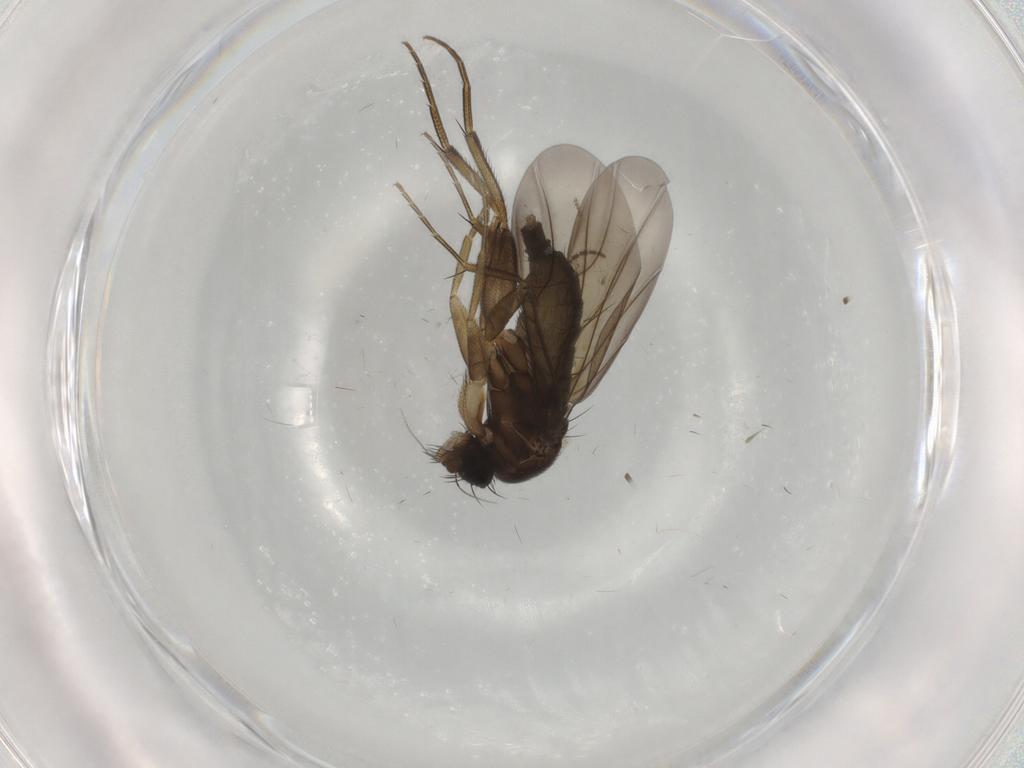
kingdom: Animalia
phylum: Arthropoda
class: Insecta
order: Diptera
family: Phoridae
